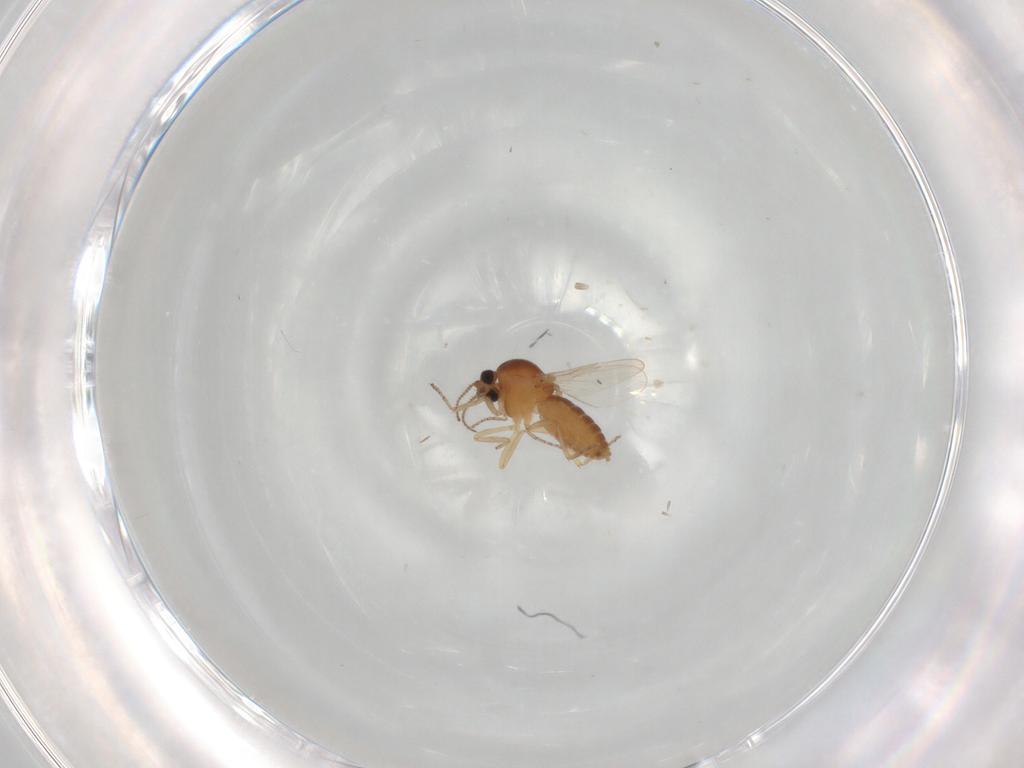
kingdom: Animalia
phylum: Arthropoda
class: Insecta
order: Diptera
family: Ceratopogonidae
